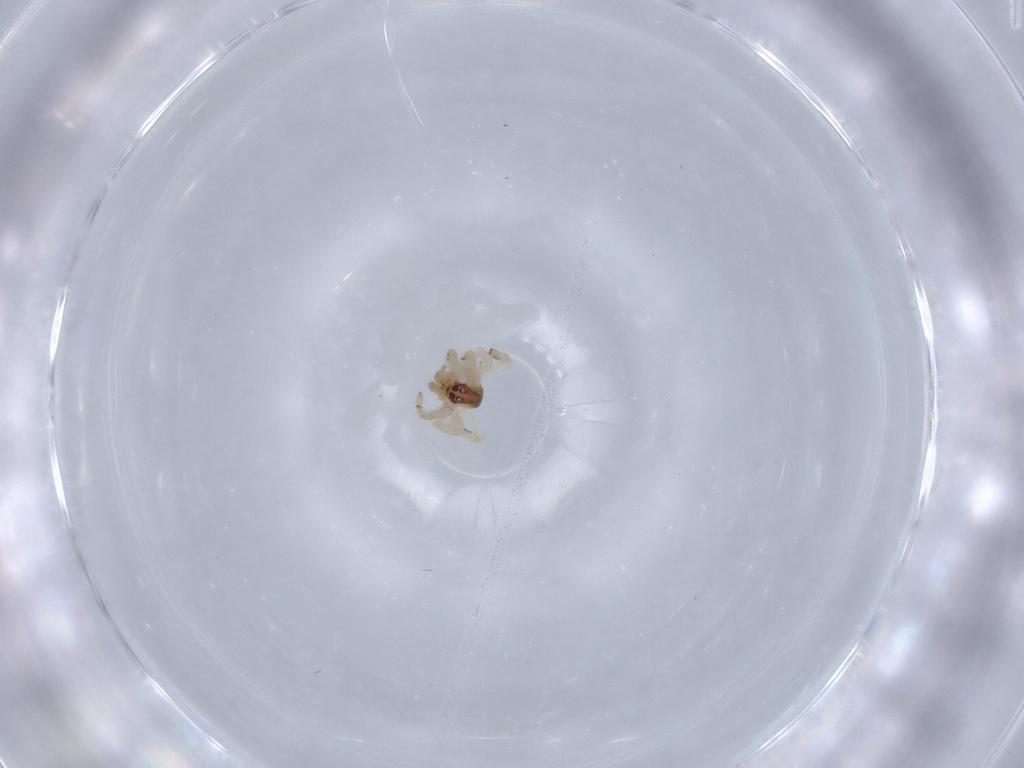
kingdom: Animalia
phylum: Arthropoda
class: Arachnida
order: Araneae
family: Theridiidae
